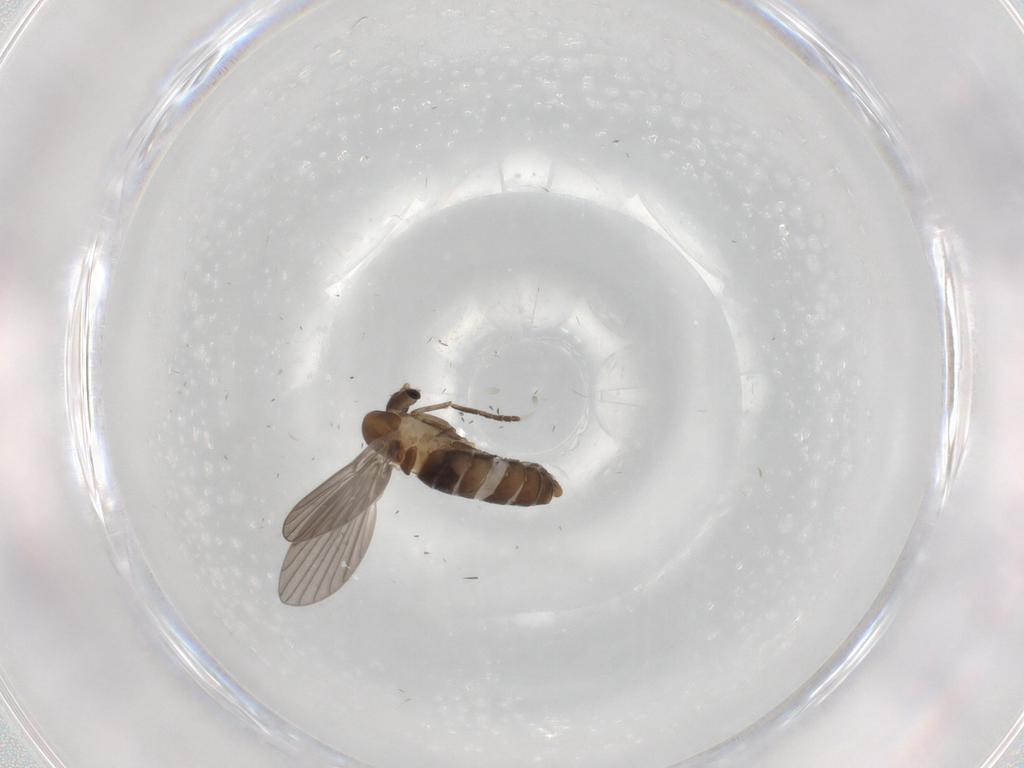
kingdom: Animalia
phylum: Arthropoda
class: Insecta
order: Diptera
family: Psychodidae
